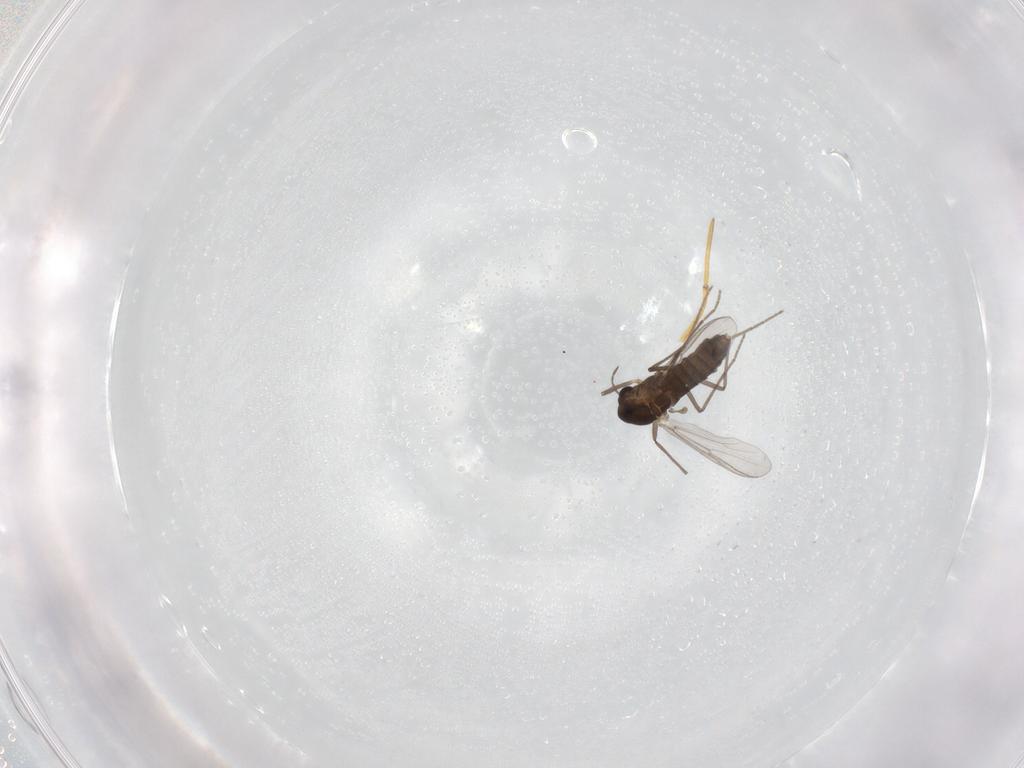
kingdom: Animalia
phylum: Arthropoda
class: Insecta
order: Diptera
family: Chironomidae
